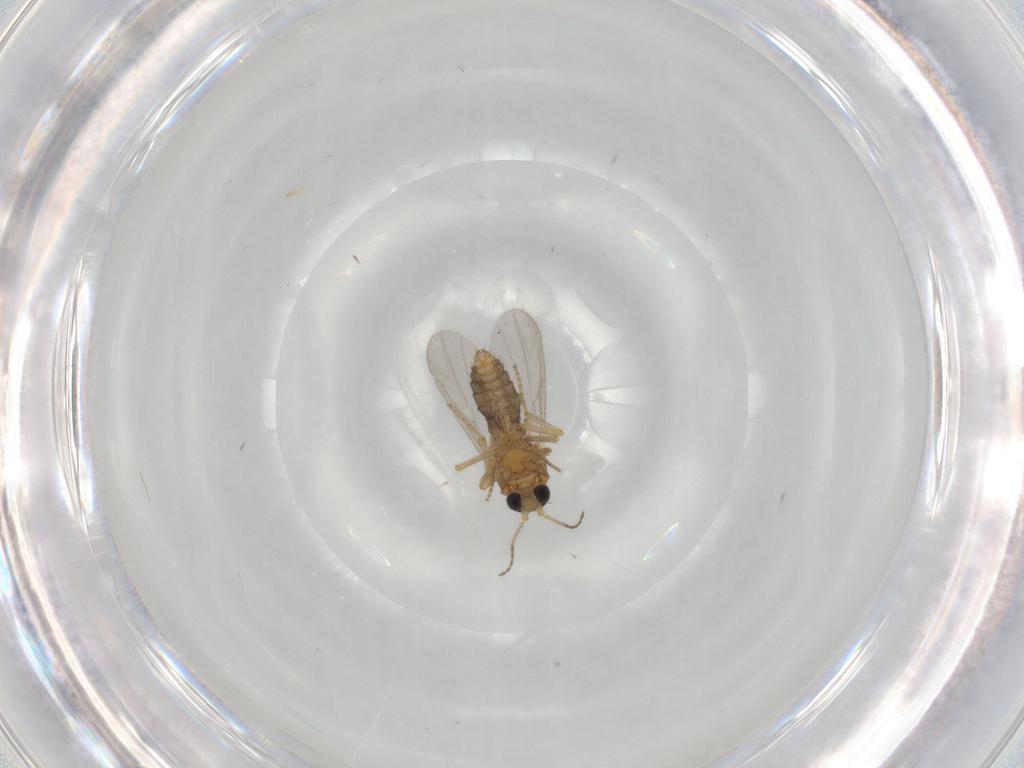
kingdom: Animalia
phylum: Arthropoda
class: Insecta
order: Diptera
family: Ceratopogonidae
